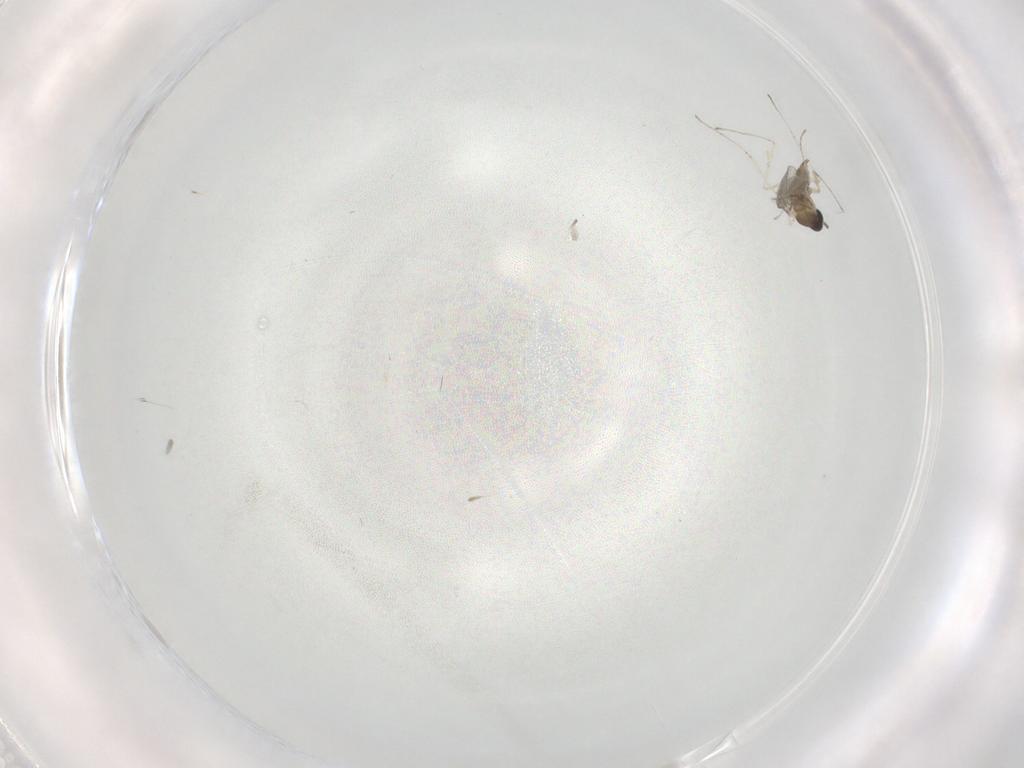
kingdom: Animalia
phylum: Arthropoda
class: Insecta
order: Diptera
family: Cecidomyiidae
